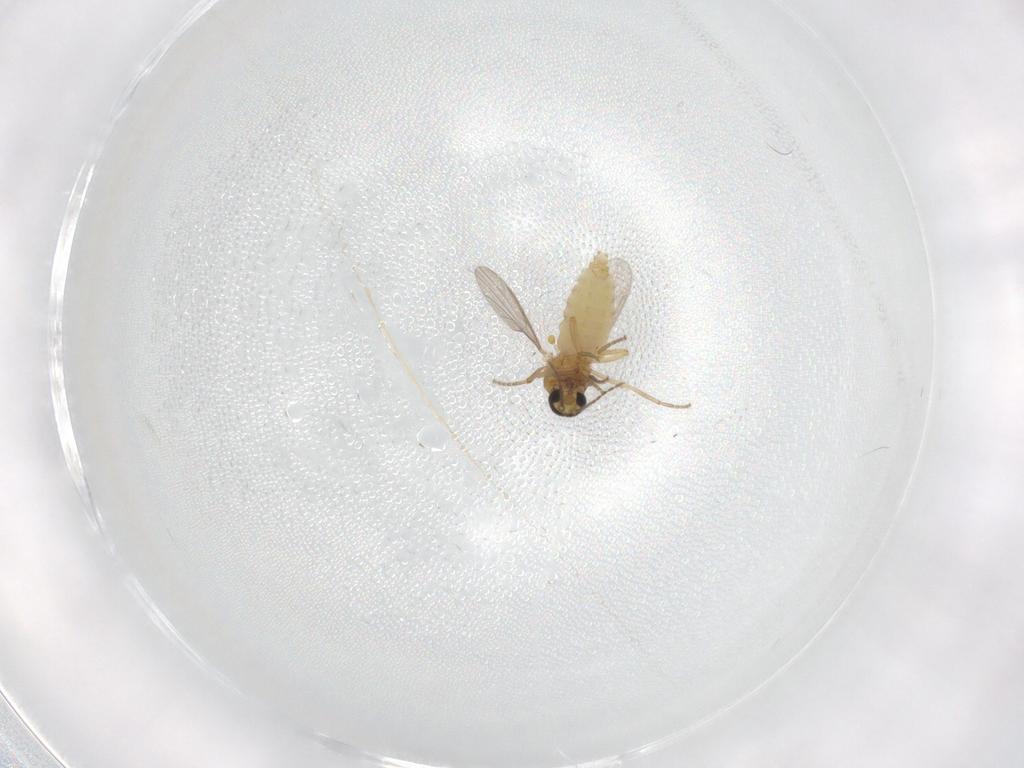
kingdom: Animalia
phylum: Arthropoda
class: Insecta
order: Diptera
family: Ceratopogonidae
